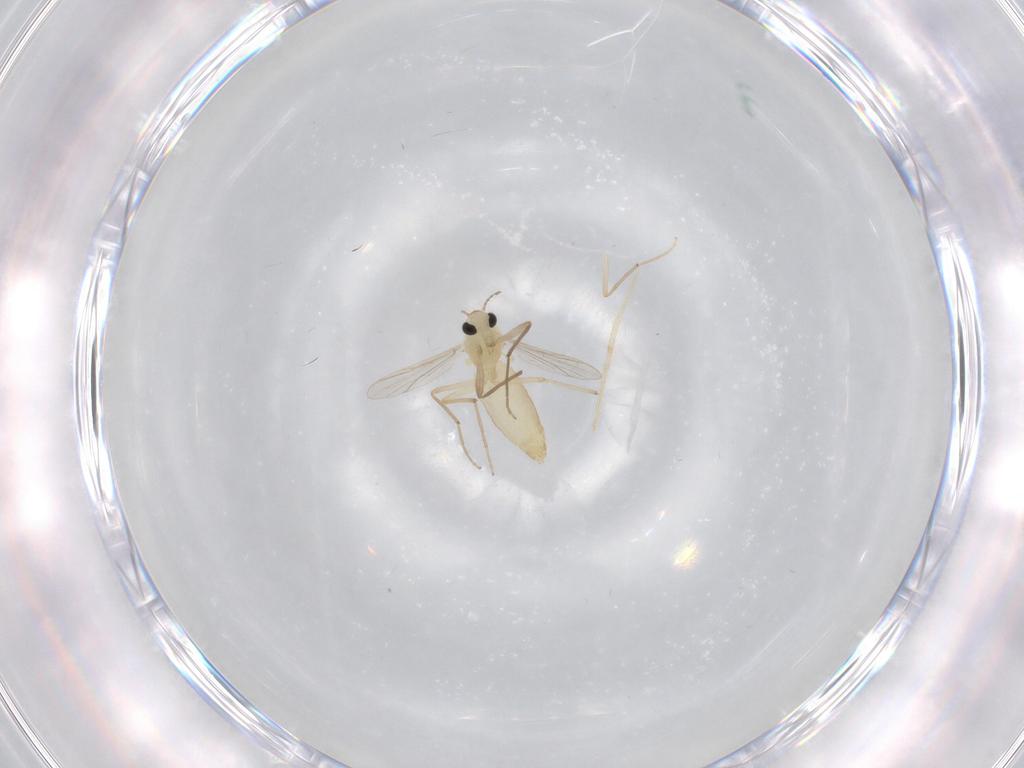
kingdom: Animalia
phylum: Arthropoda
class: Insecta
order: Diptera
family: Chironomidae
